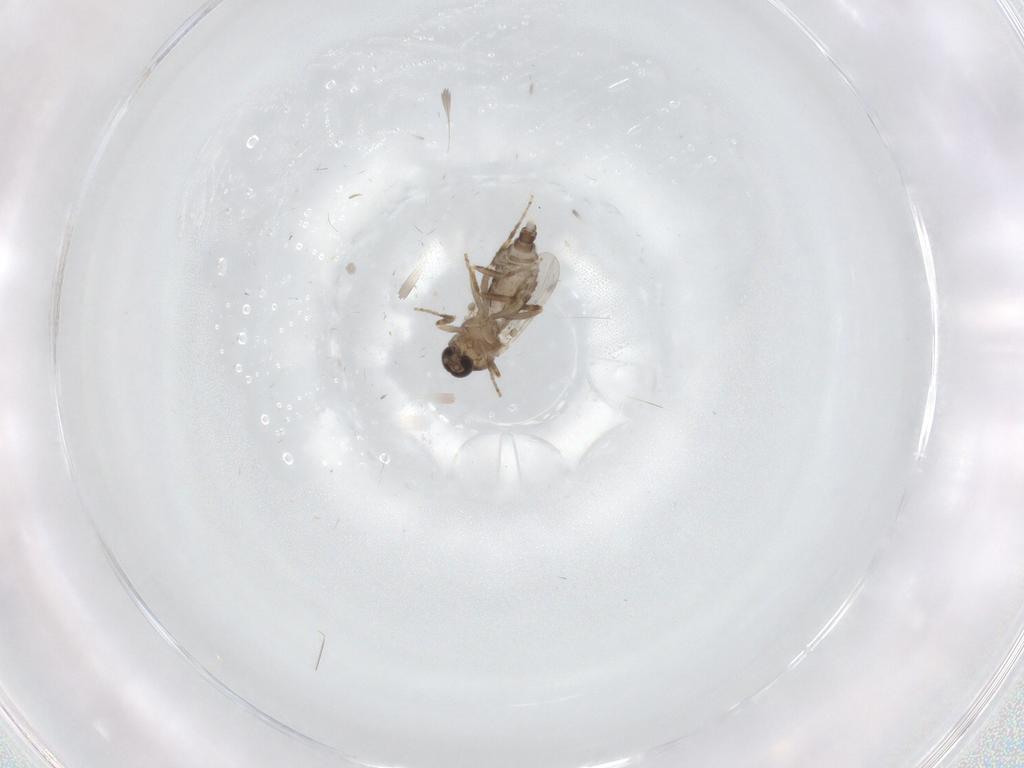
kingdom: Animalia
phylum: Arthropoda
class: Insecta
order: Diptera
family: Ceratopogonidae
